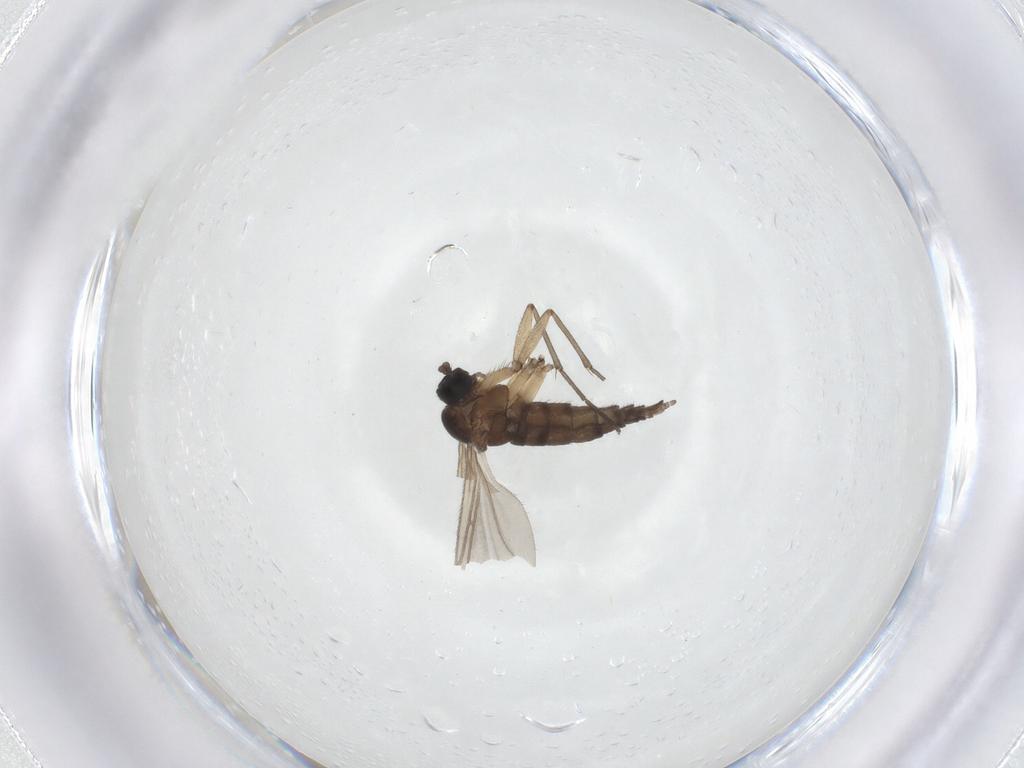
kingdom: Animalia
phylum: Arthropoda
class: Insecta
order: Diptera
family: Sciaridae
